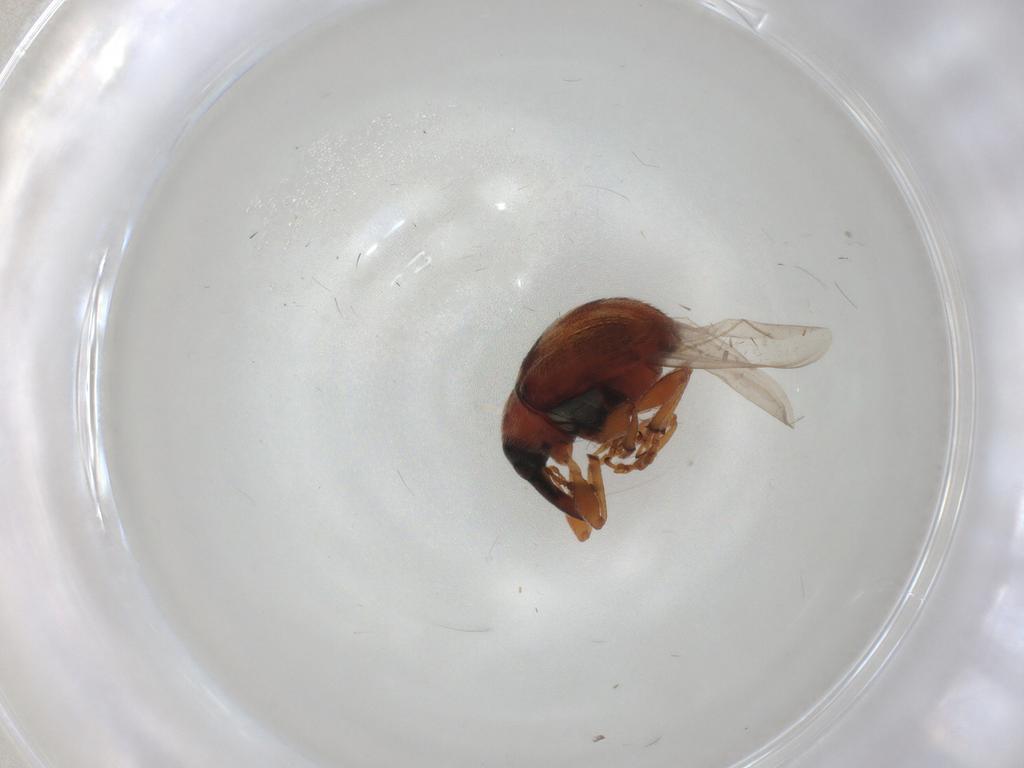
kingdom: Animalia
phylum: Arthropoda
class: Insecta
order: Coleoptera
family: Brentidae
